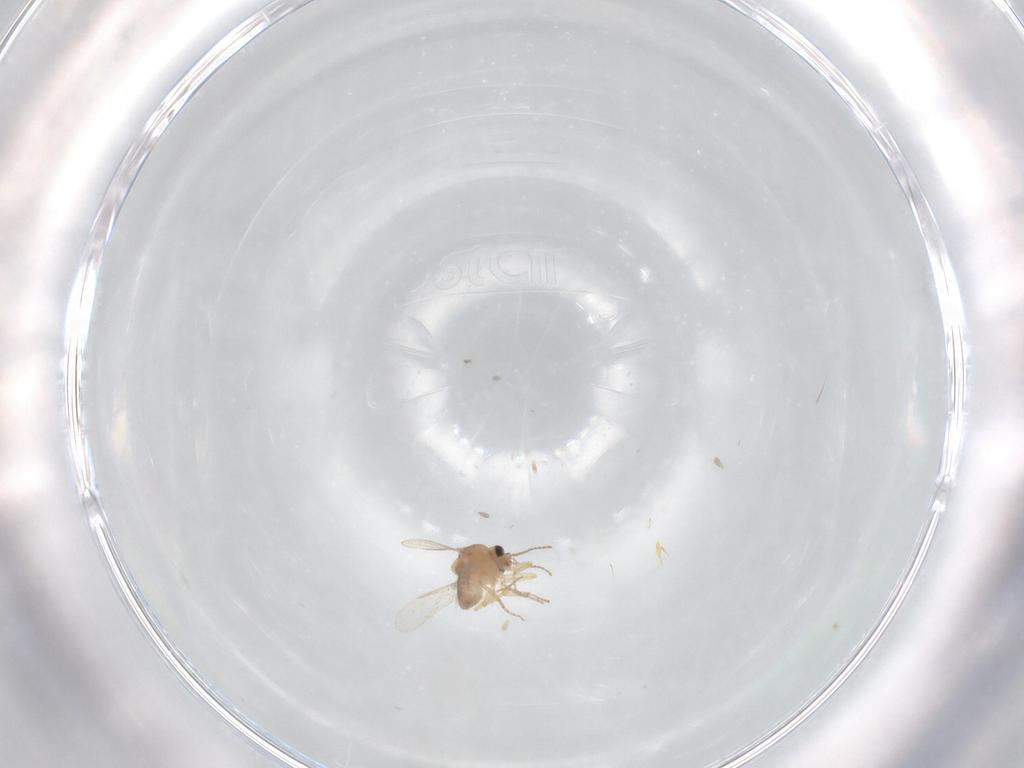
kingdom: Animalia
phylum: Arthropoda
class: Insecta
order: Diptera
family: Ceratopogonidae
